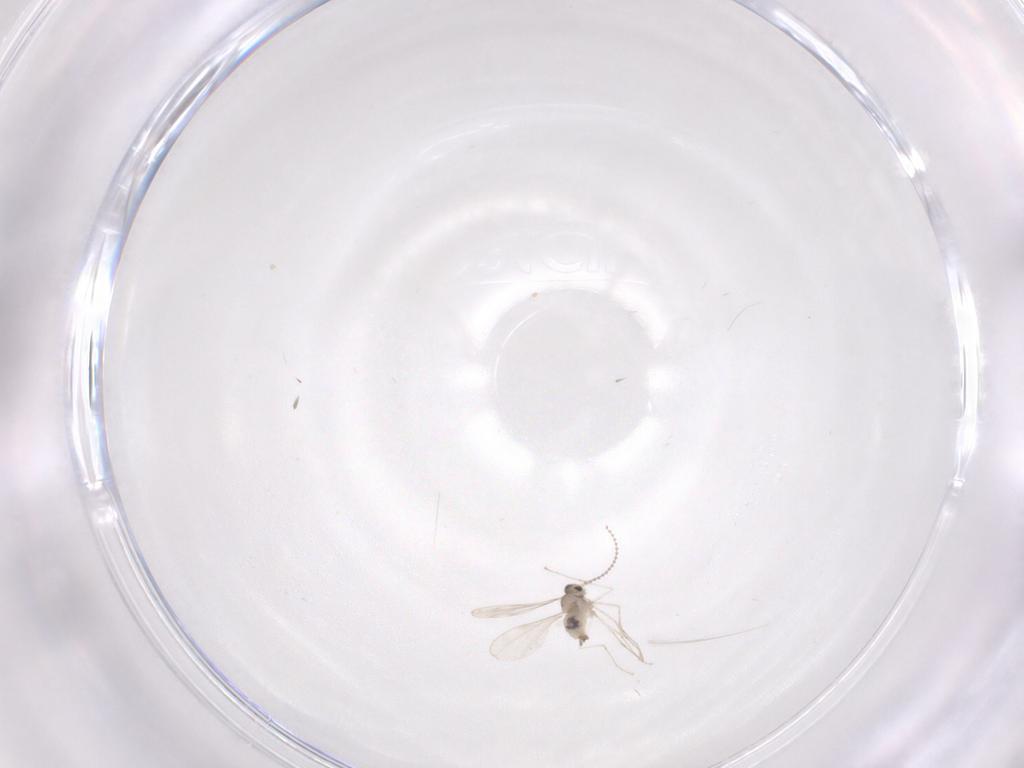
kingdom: Animalia
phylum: Arthropoda
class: Insecta
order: Diptera
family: Cecidomyiidae
